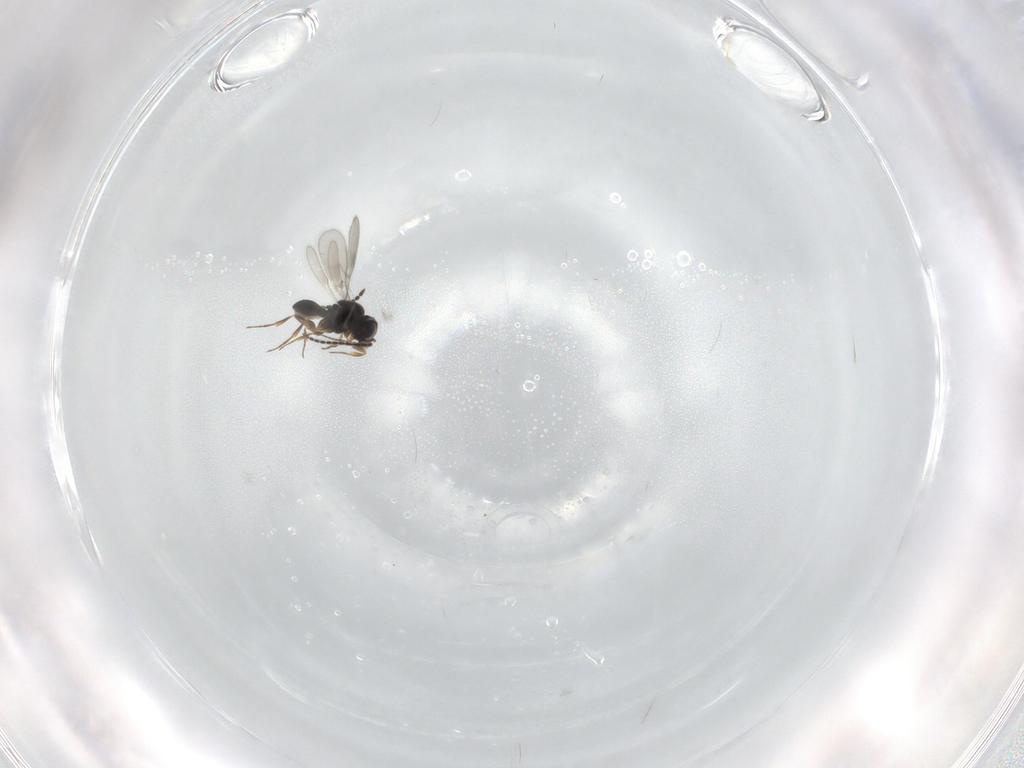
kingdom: Animalia
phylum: Arthropoda
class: Insecta
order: Hymenoptera
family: Scelionidae
